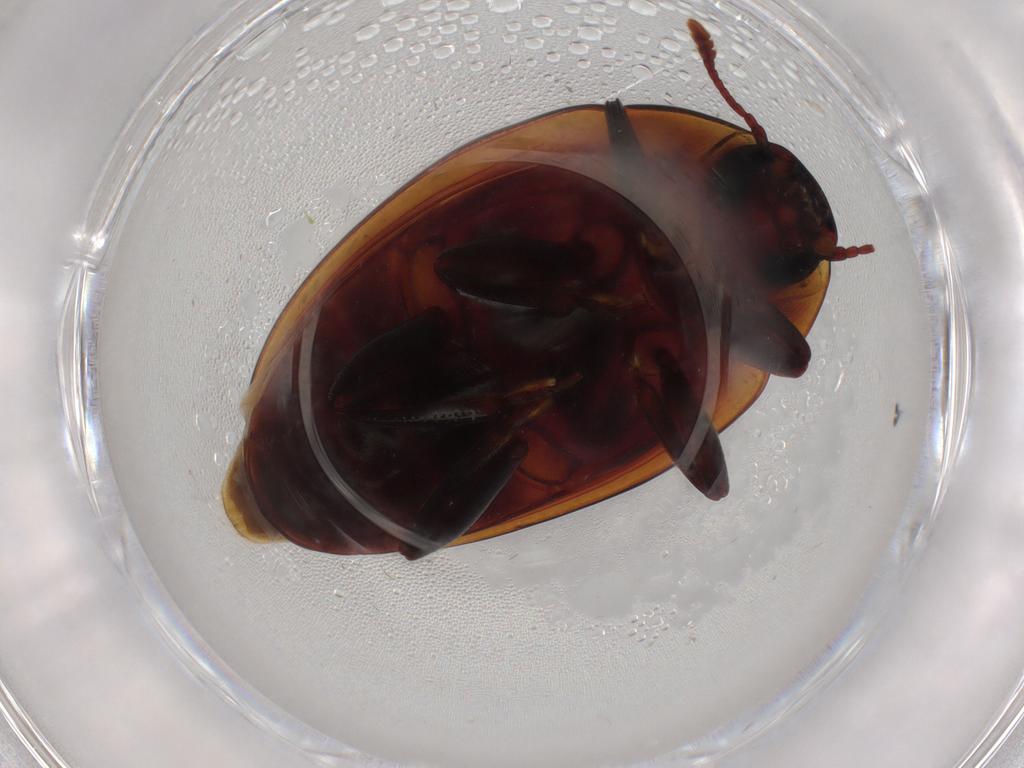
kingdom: Animalia
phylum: Arthropoda
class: Insecta
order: Coleoptera
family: Zopheridae
